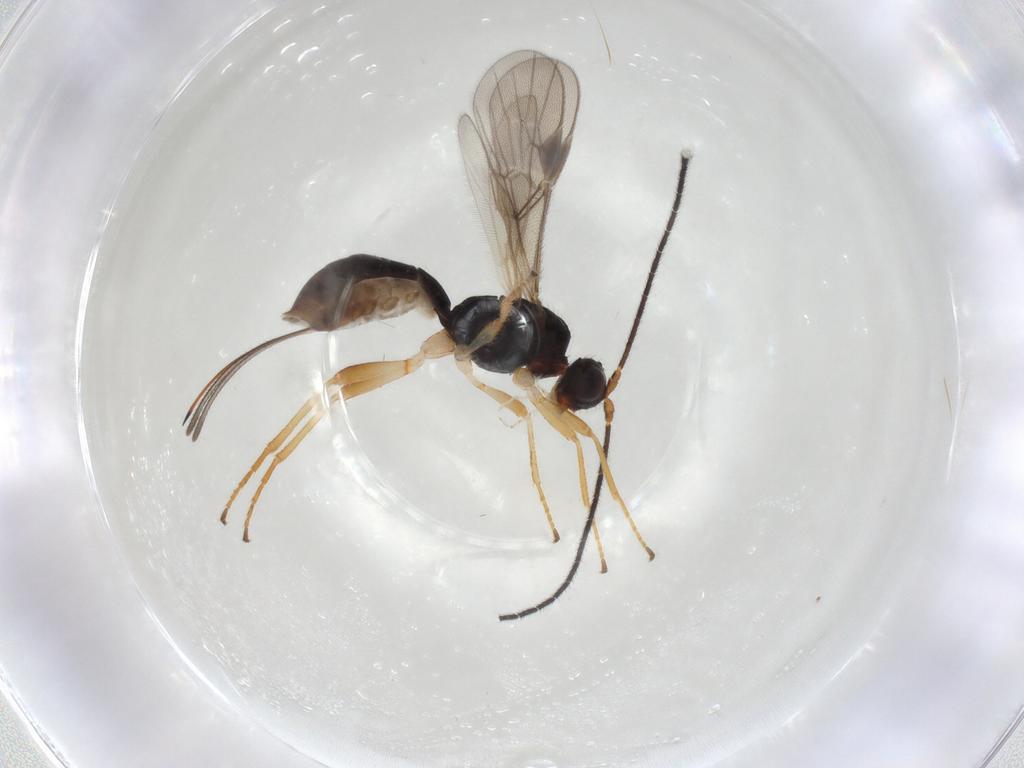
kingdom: Animalia
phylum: Arthropoda
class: Insecta
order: Hymenoptera
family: Braconidae
